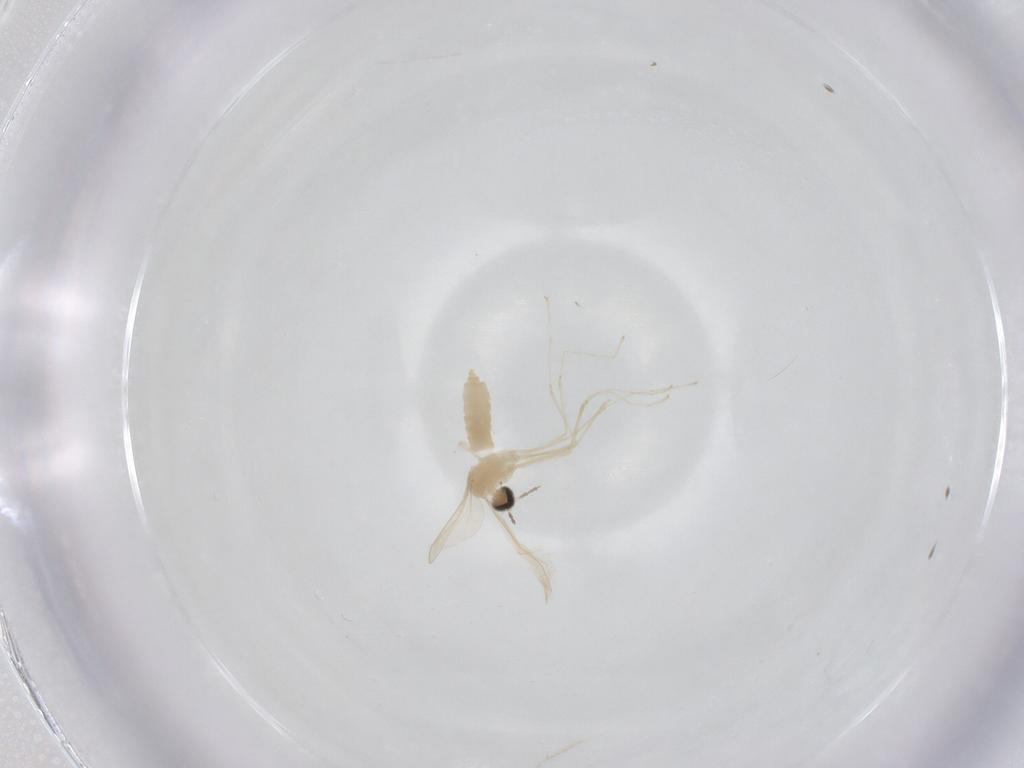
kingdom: Animalia
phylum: Arthropoda
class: Insecta
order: Diptera
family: Cecidomyiidae
